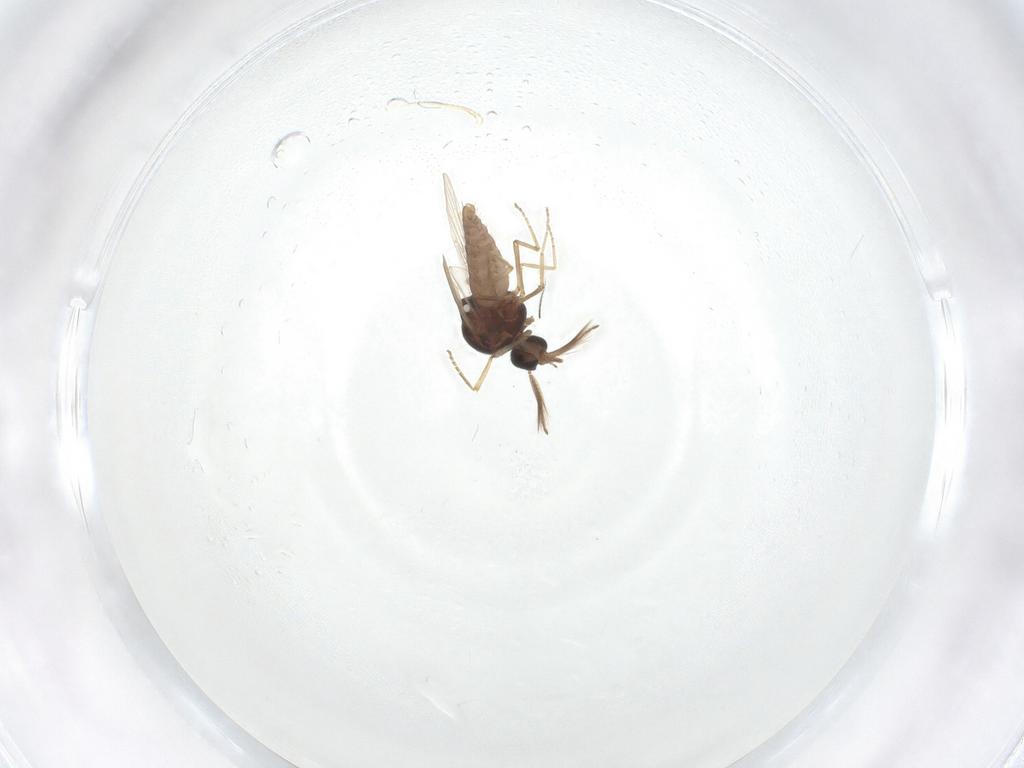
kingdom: Animalia
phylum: Arthropoda
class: Insecta
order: Diptera
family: Ceratopogonidae
